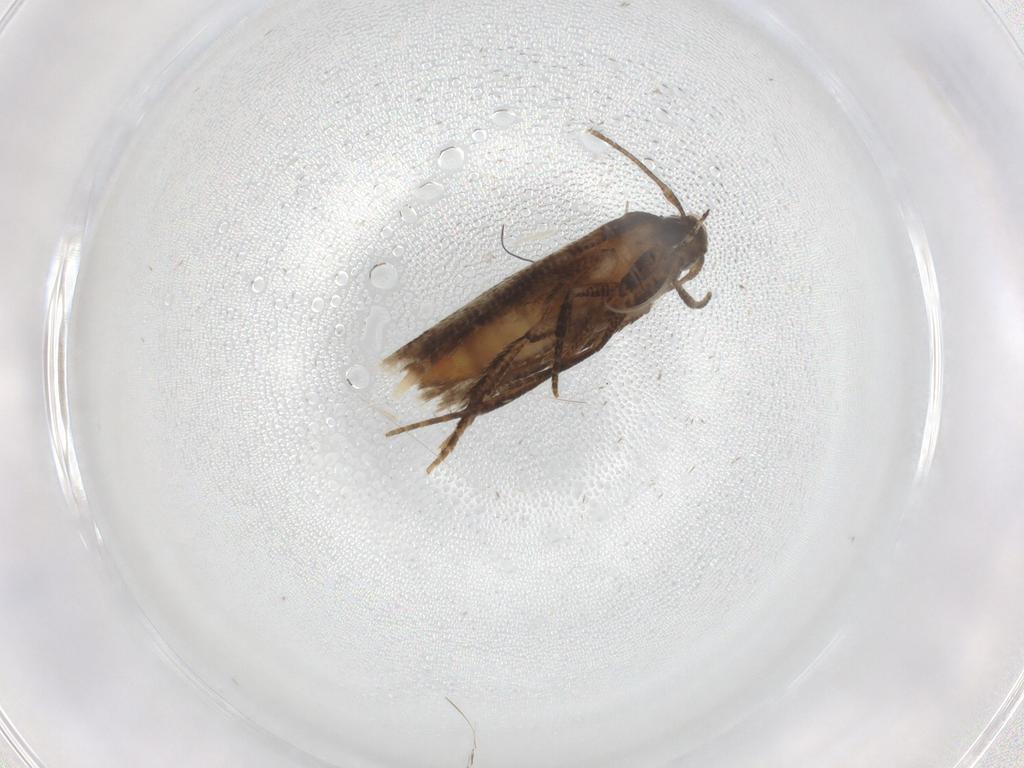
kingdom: Animalia
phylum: Arthropoda
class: Insecta
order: Lepidoptera
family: Cosmopterigidae
